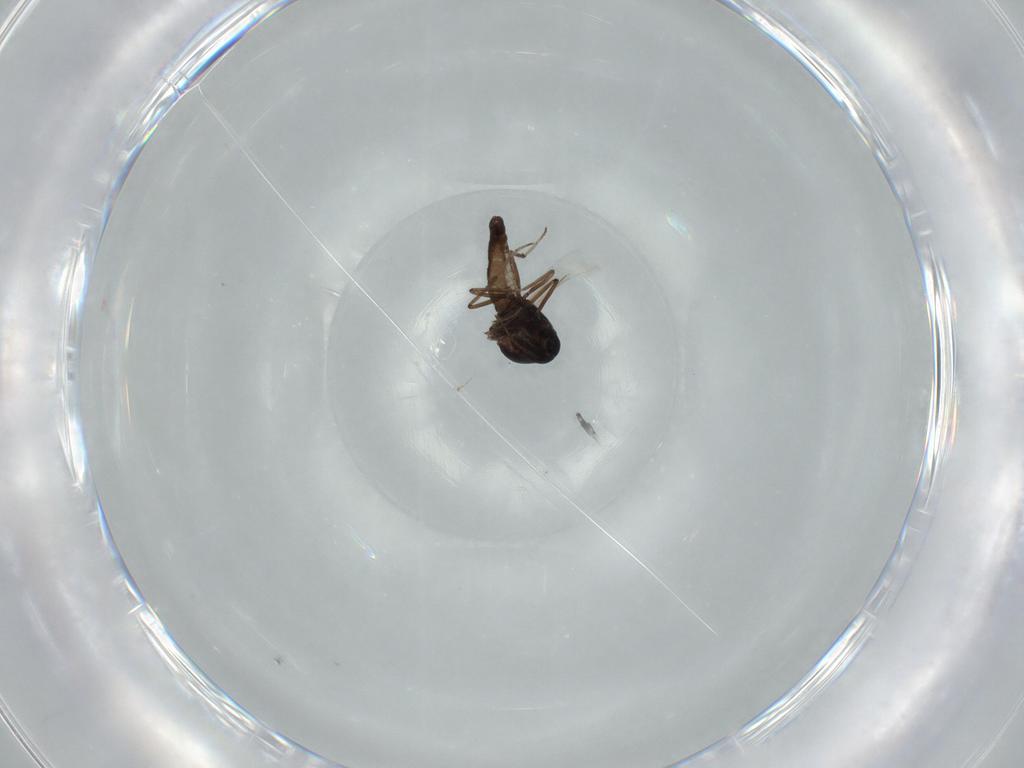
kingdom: Animalia
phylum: Arthropoda
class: Insecta
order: Diptera
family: Chironomidae
